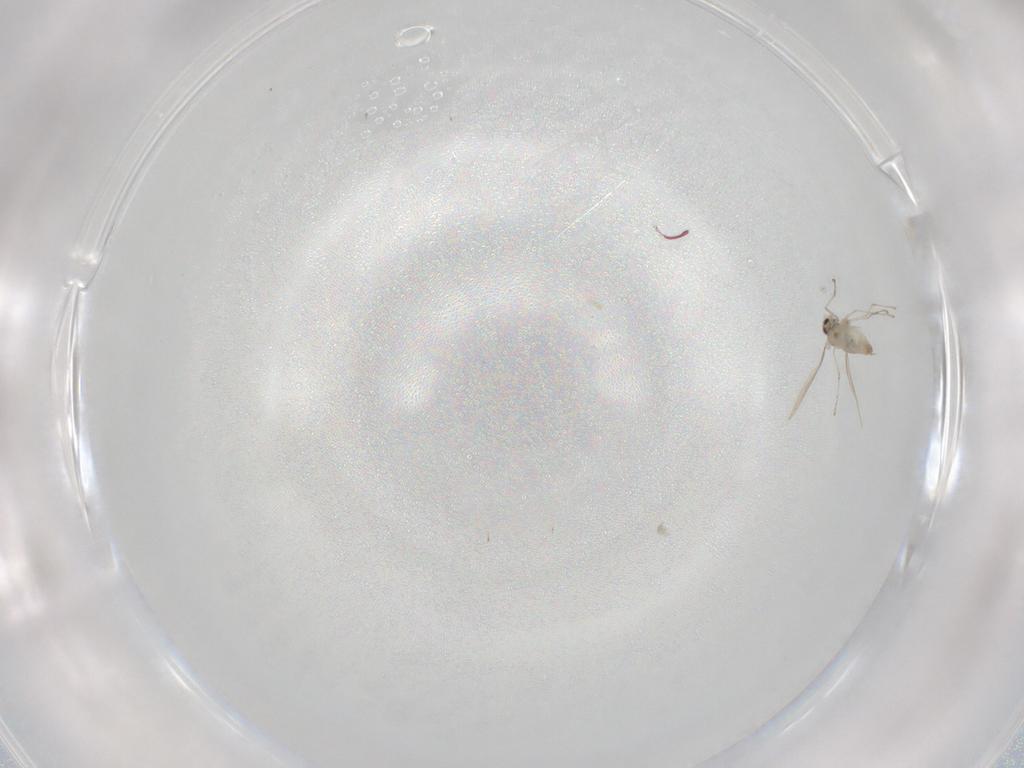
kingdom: Animalia
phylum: Arthropoda
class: Insecta
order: Diptera
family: Cecidomyiidae
